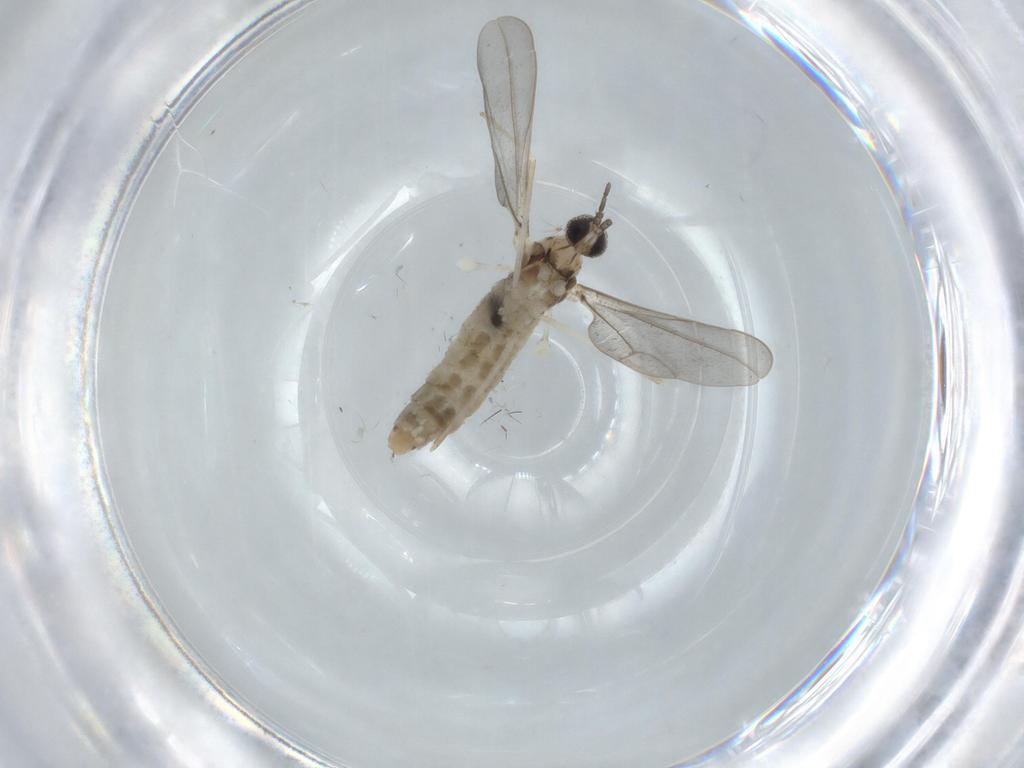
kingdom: Animalia
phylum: Arthropoda
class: Insecta
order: Diptera
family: Cecidomyiidae
